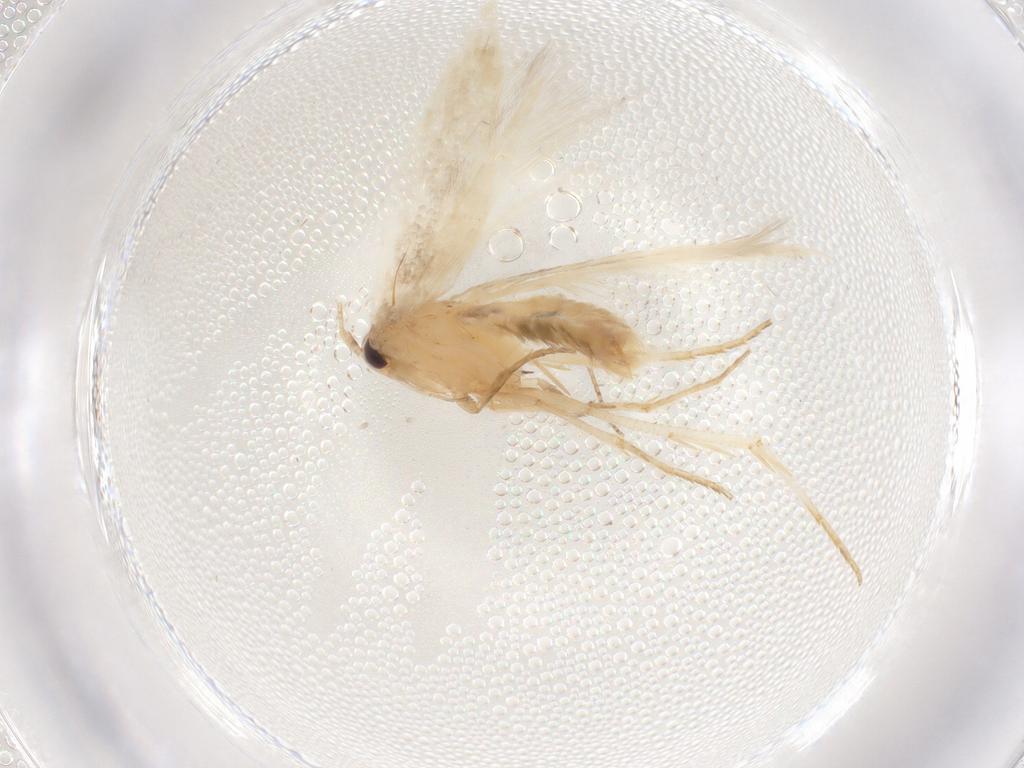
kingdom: Animalia
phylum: Arthropoda
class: Insecta
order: Lepidoptera
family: Cosmopterigidae
